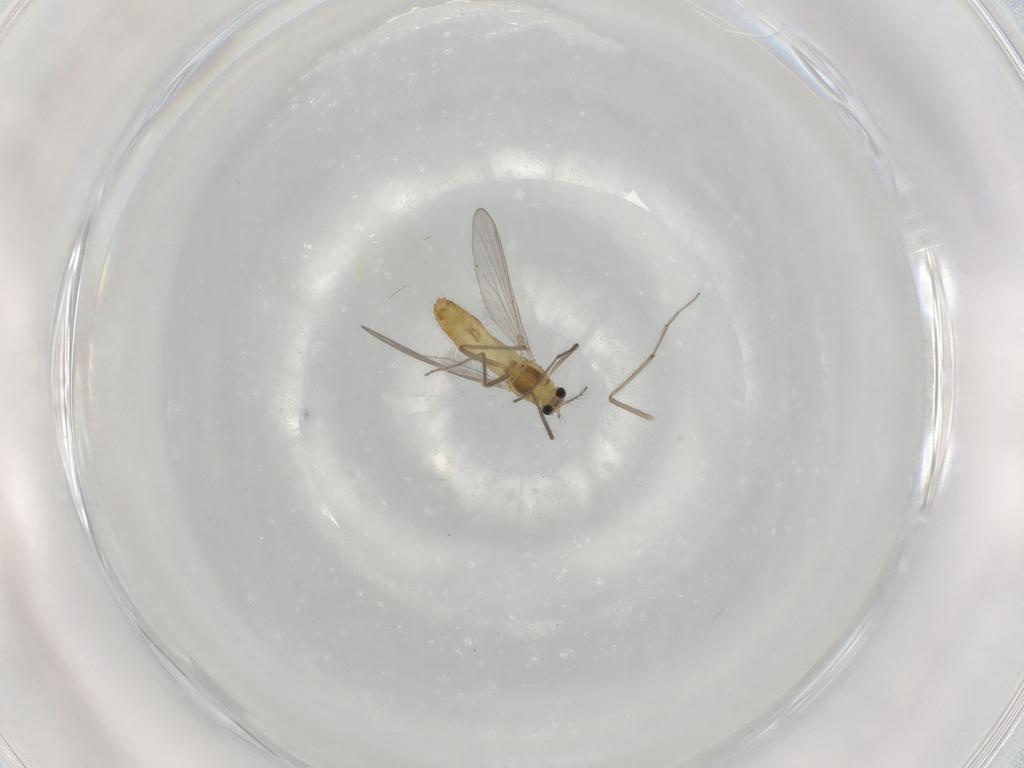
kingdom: Animalia
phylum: Arthropoda
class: Insecta
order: Diptera
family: Chironomidae
